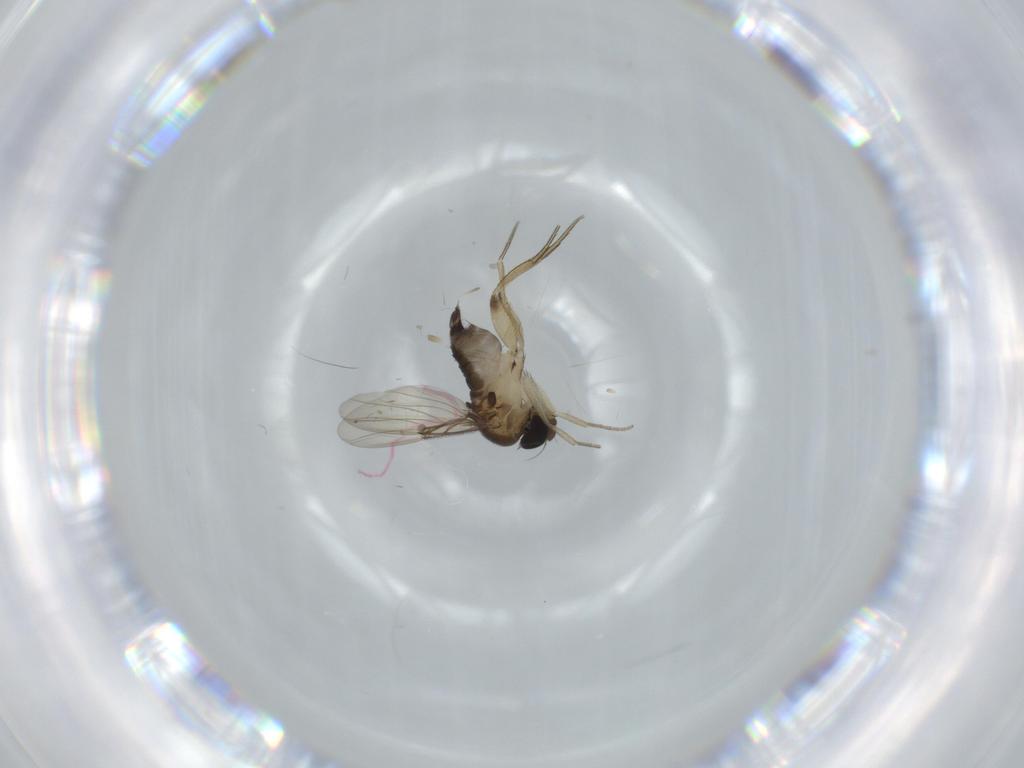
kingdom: Animalia
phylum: Arthropoda
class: Insecta
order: Diptera
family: Phoridae
